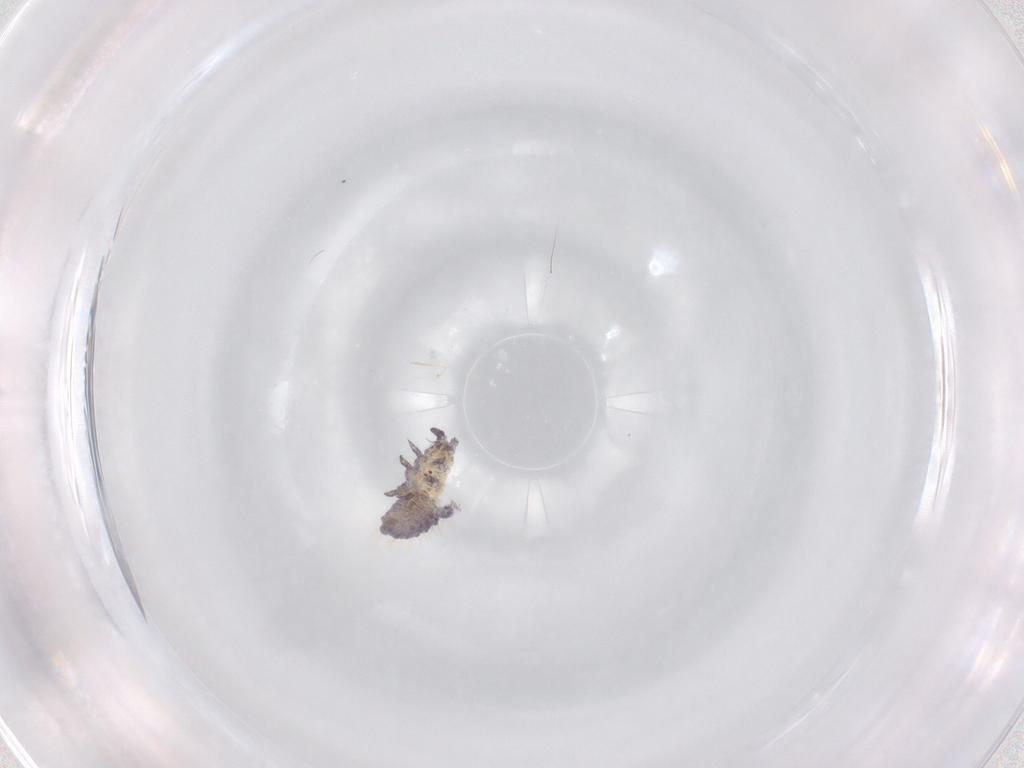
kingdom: Animalia
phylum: Arthropoda
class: Collembola
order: Poduromorpha
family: Neanuridae
